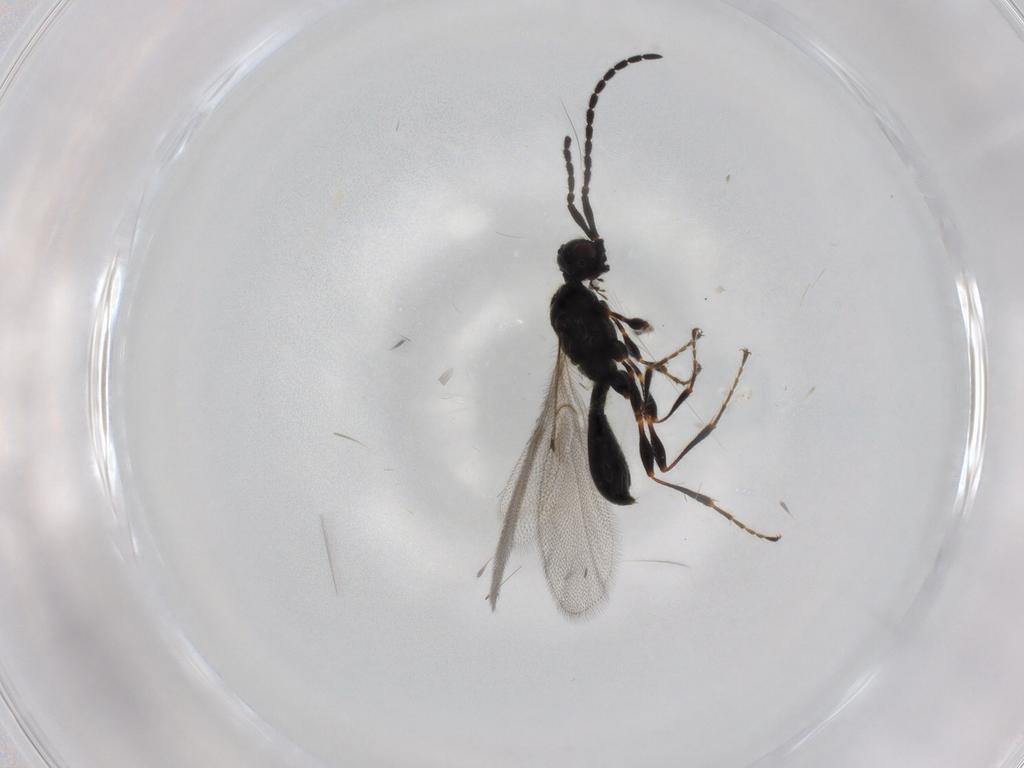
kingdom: Animalia
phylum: Arthropoda
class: Insecta
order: Hymenoptera
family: Diapriidae
